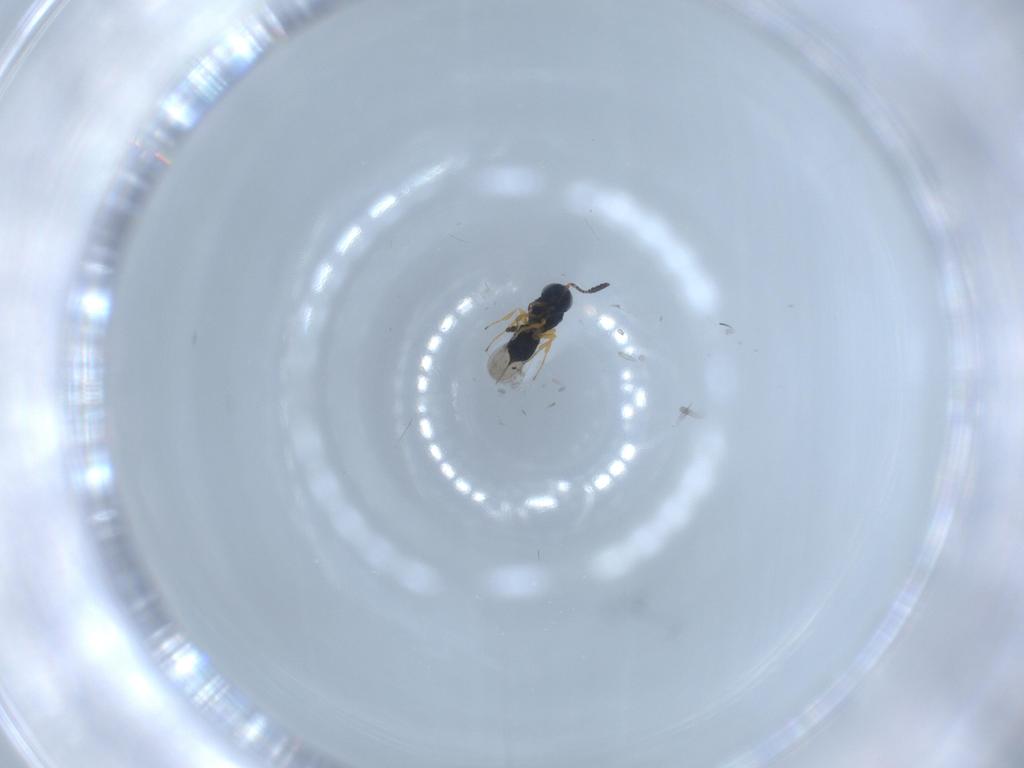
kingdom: Animalia
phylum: Arthropoda
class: Insecta
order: Hymenoptera
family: Scelionidae
